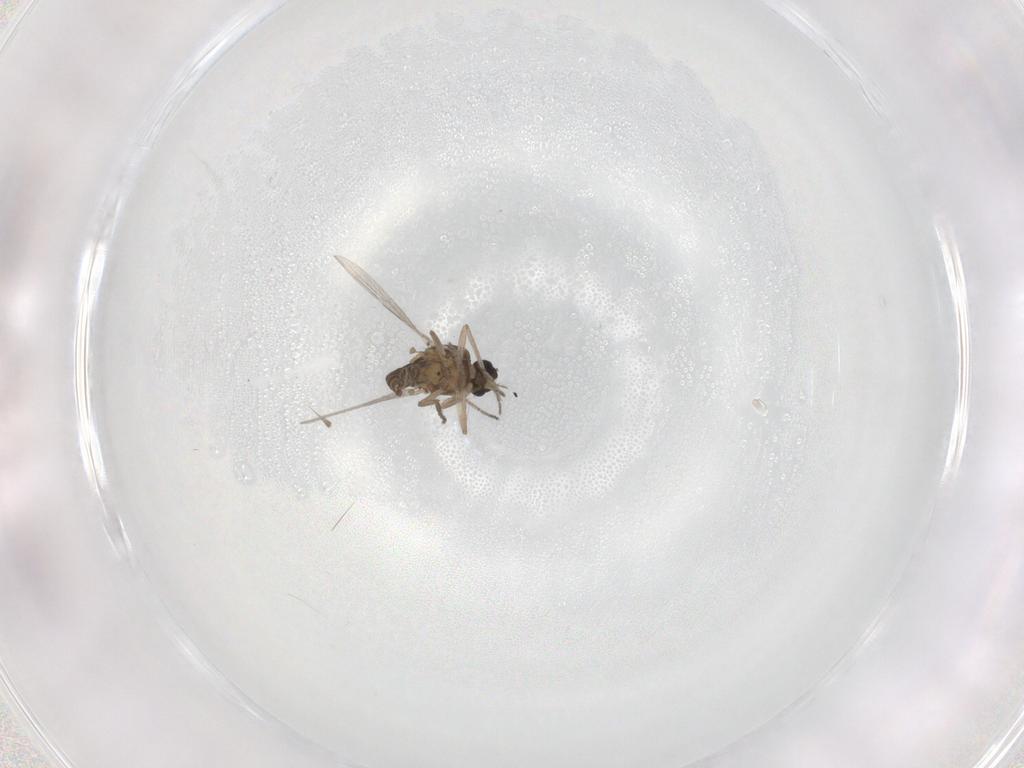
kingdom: Animalia
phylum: Arthropoda
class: Insecta
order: Diptera
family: Ceratopogonidae
